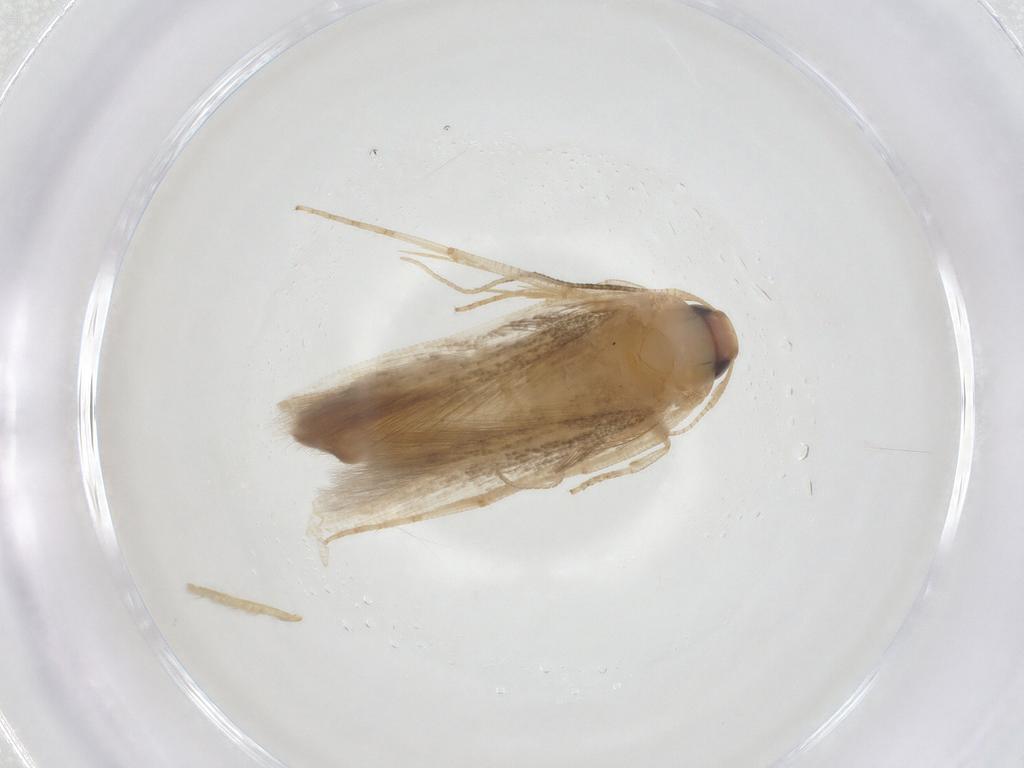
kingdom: Animalia
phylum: Arthropoda
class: Insecta
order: Lepidoptera
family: Cosmopterigidae
